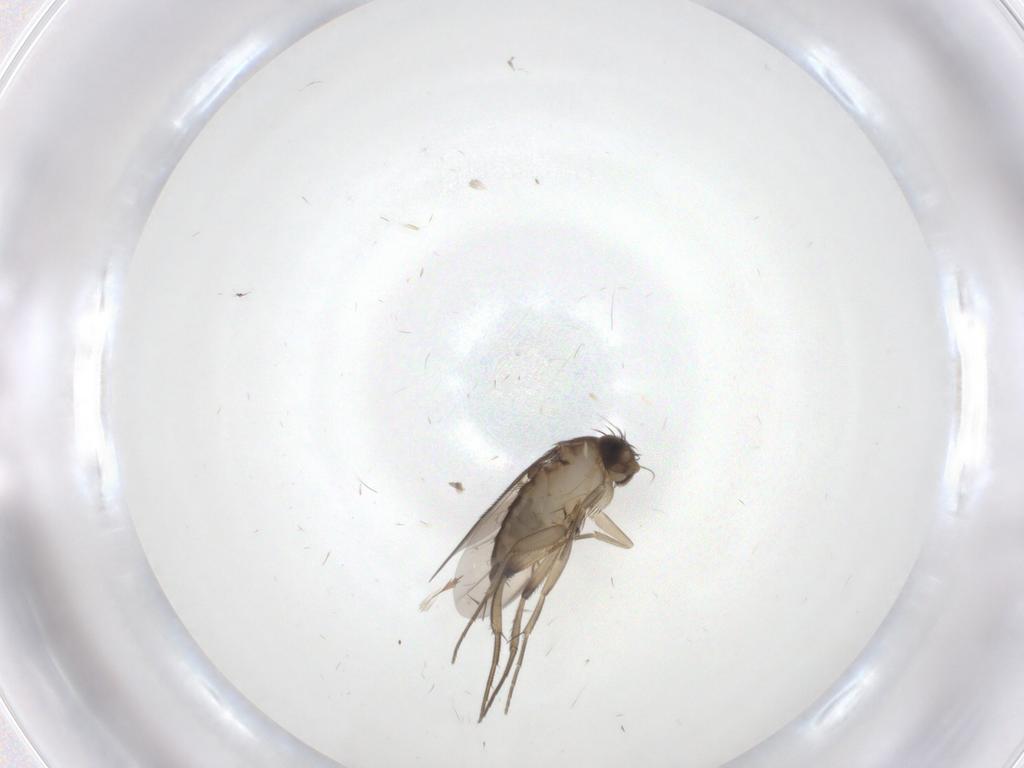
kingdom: Animalia
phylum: Arthropoda
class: Insecta
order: Diptera
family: Phoridae
